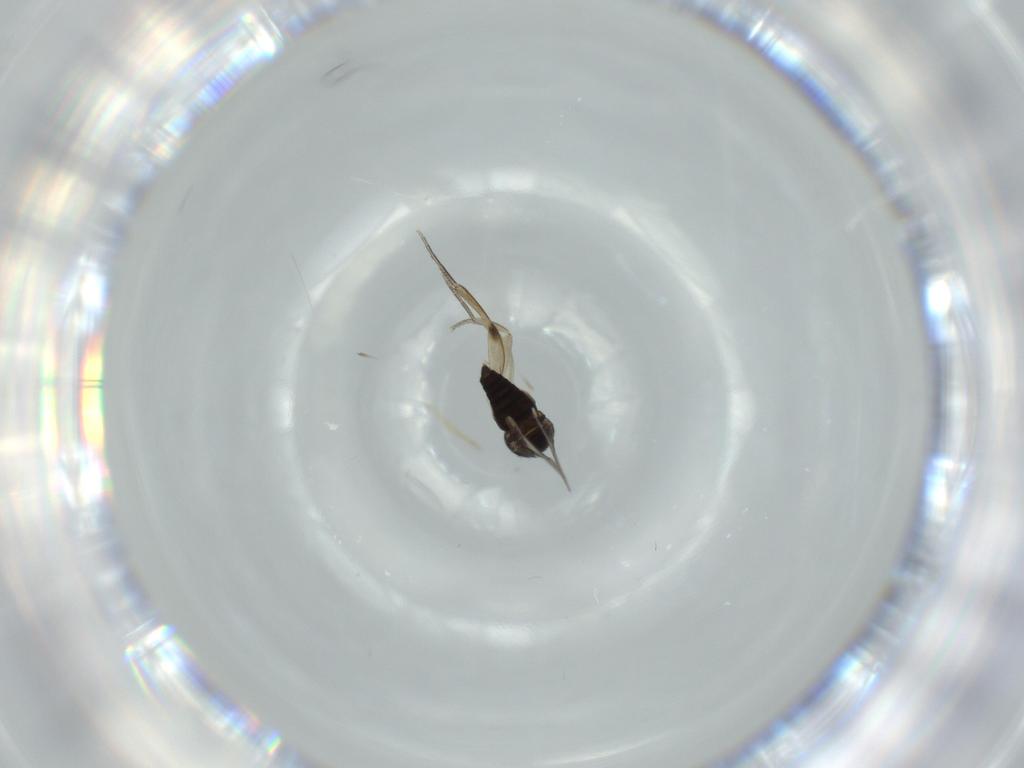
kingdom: Animalia
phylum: Arthropoda
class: Insecta
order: Diptera
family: Phoridae
